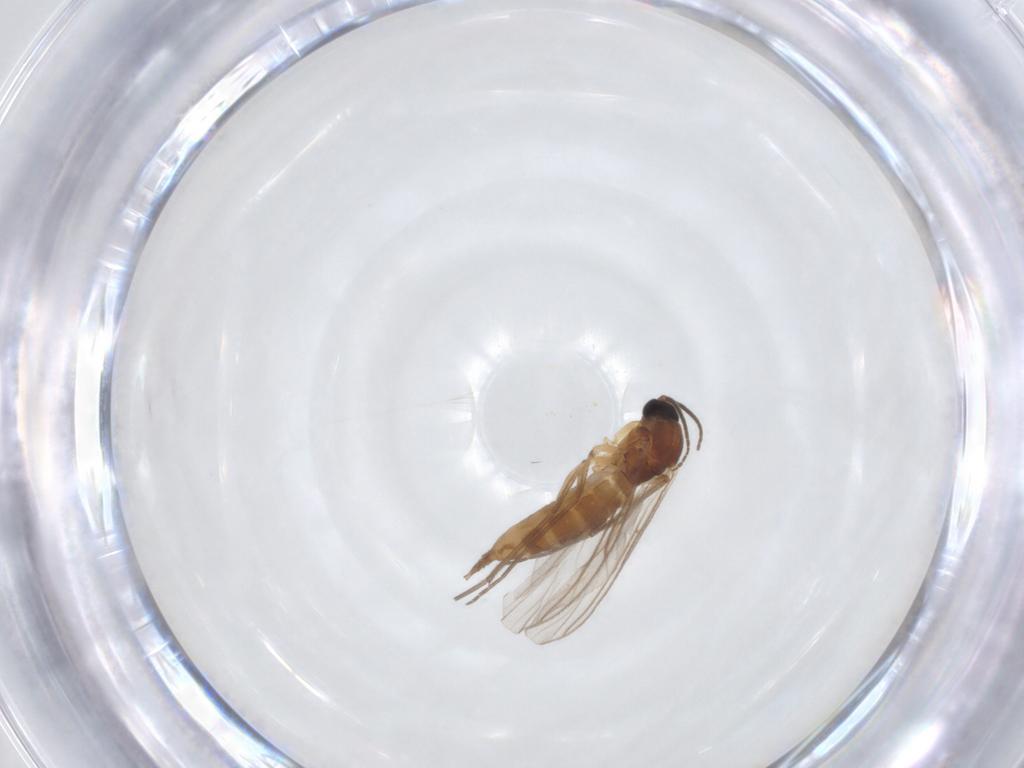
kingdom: Animalia
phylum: Arthropoda
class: Insecta
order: Diptera
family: Sciaridae
